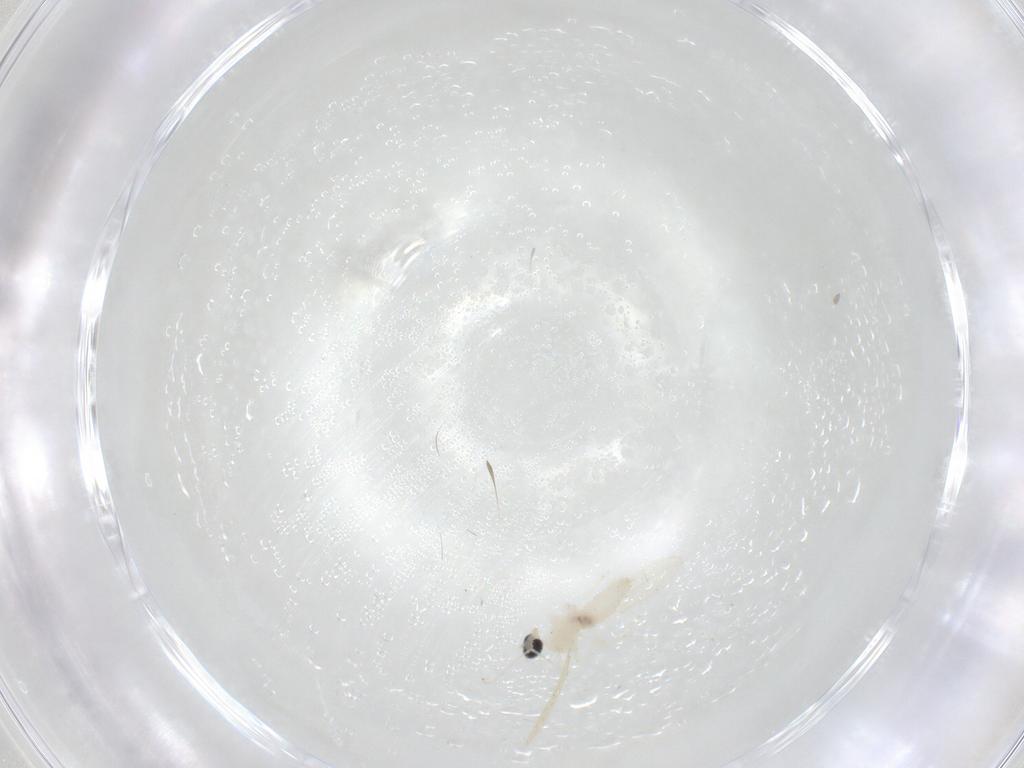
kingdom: Animalia
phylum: Arthropoda
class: Insecta
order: Diptera
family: Cecidomyiidae
